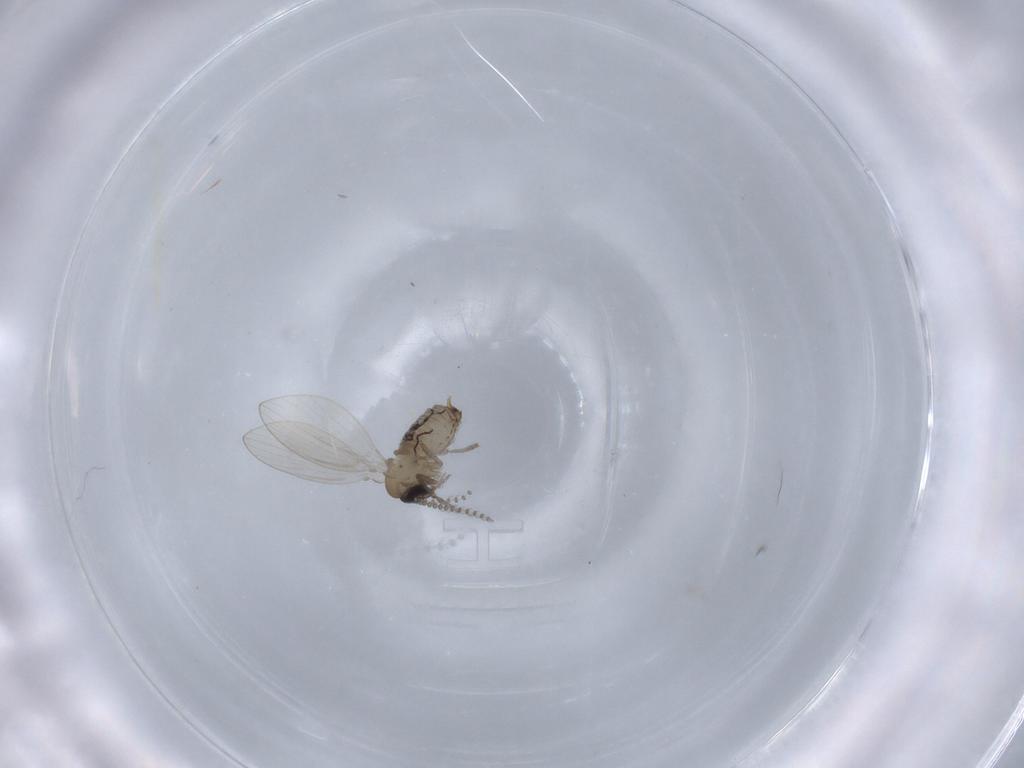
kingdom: Animalia
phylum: Arthropoda
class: Insecta
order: Diptera
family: Psychodidae
